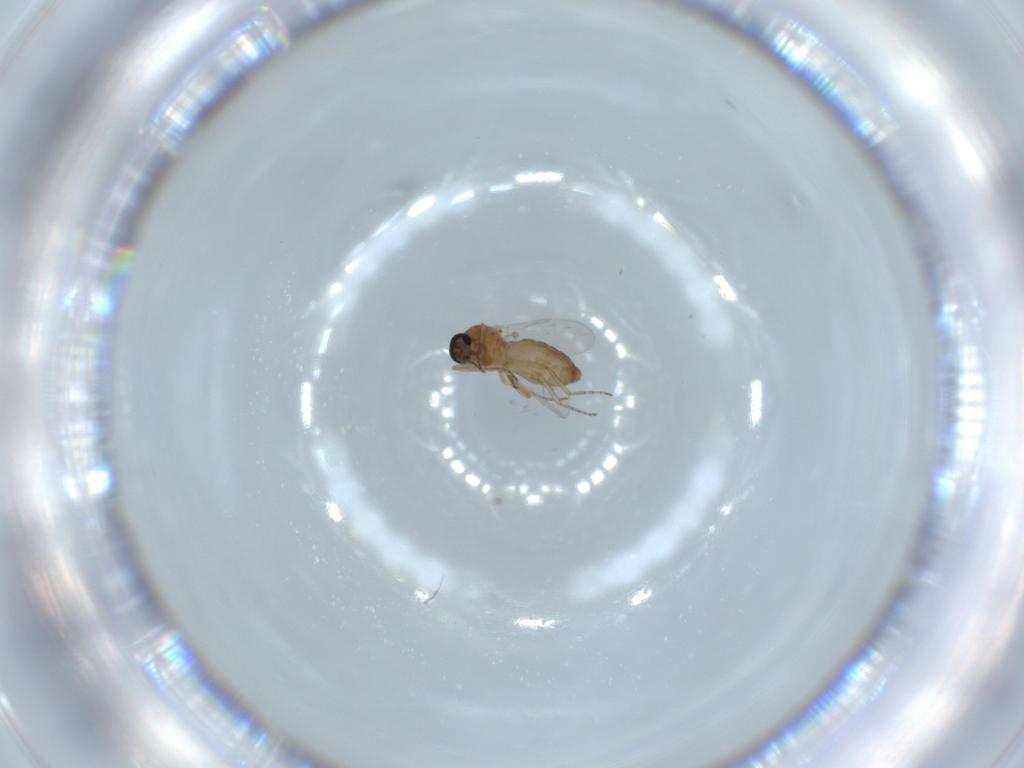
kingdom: Animalia
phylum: Arthropoda
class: Insecta
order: Diptera
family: Ceratopogonidae
